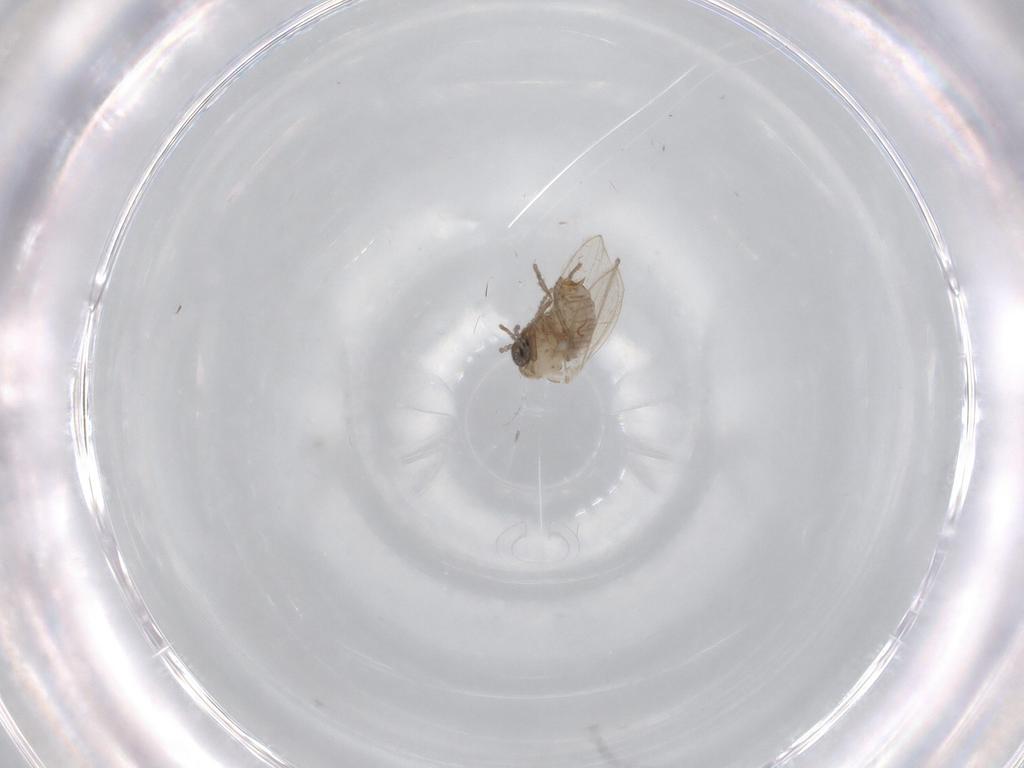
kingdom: Animalia
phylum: Arthropoda
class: Insecta
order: Diptera
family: Psychodidae
